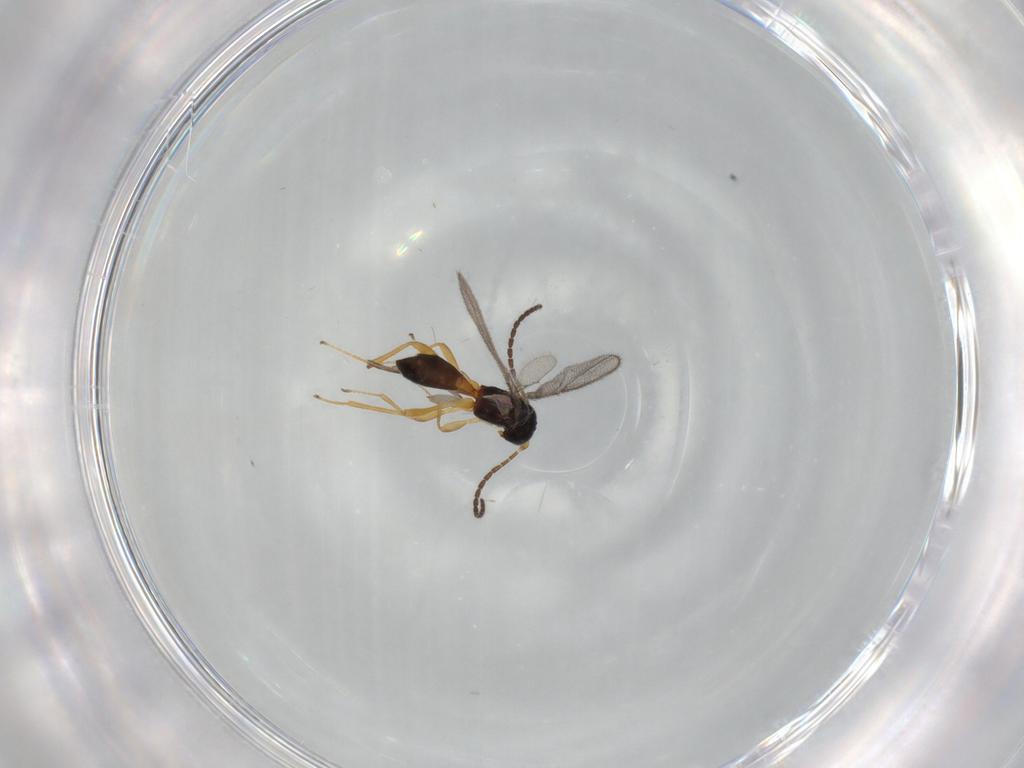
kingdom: Animalia
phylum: Arthropoda
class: Insecta
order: Hymenoptera
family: Braconidae
